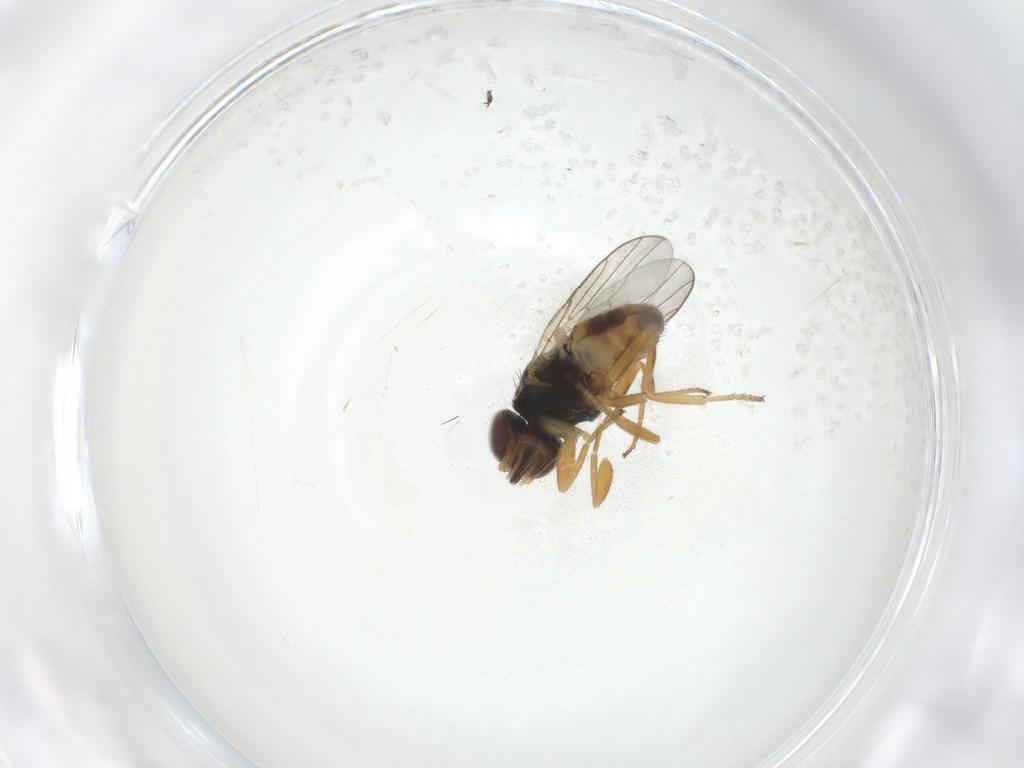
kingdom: Animalia
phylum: Arthropoda
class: Insecta
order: Diptera
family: Chloropidae
